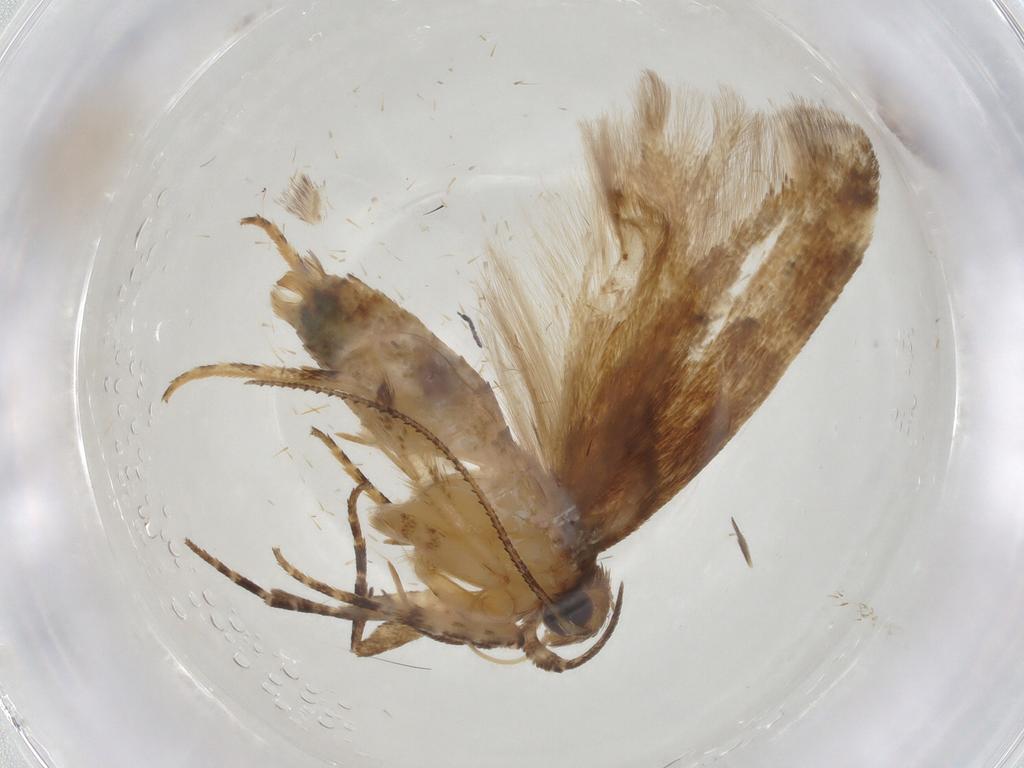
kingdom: Animalia
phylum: Arthropoda
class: Insecta
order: Lepidoptera
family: Gelechiidae
